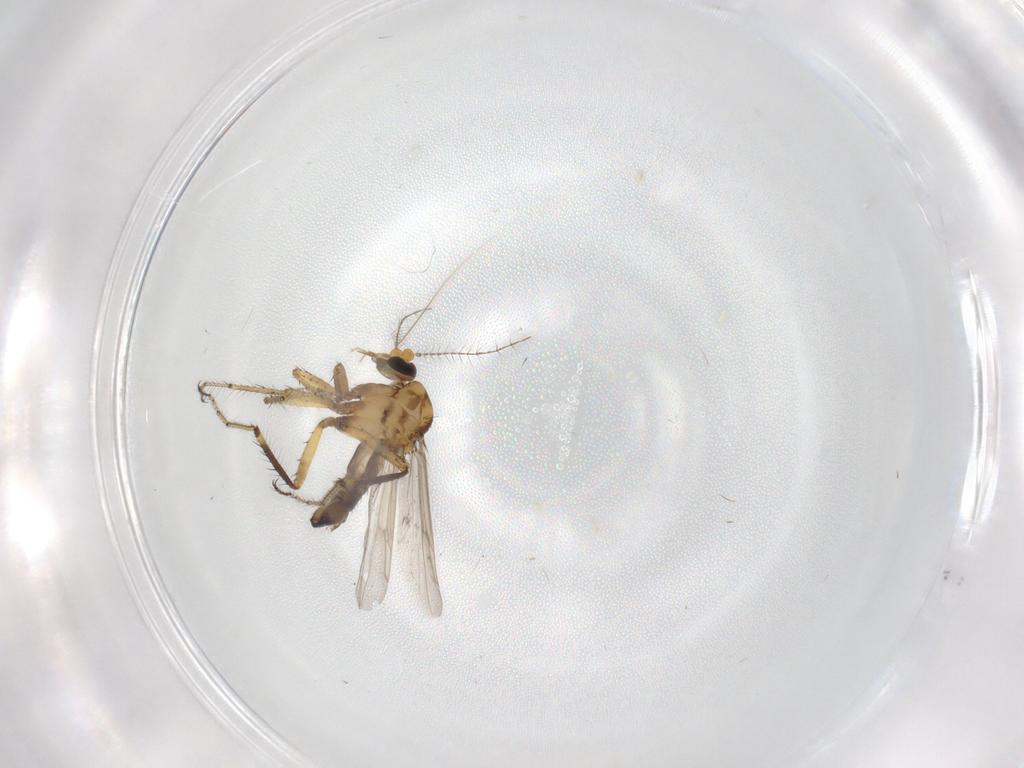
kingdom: Animalia
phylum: Arthropoda
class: Insecta
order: Diptera
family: Ceratopogonidae
